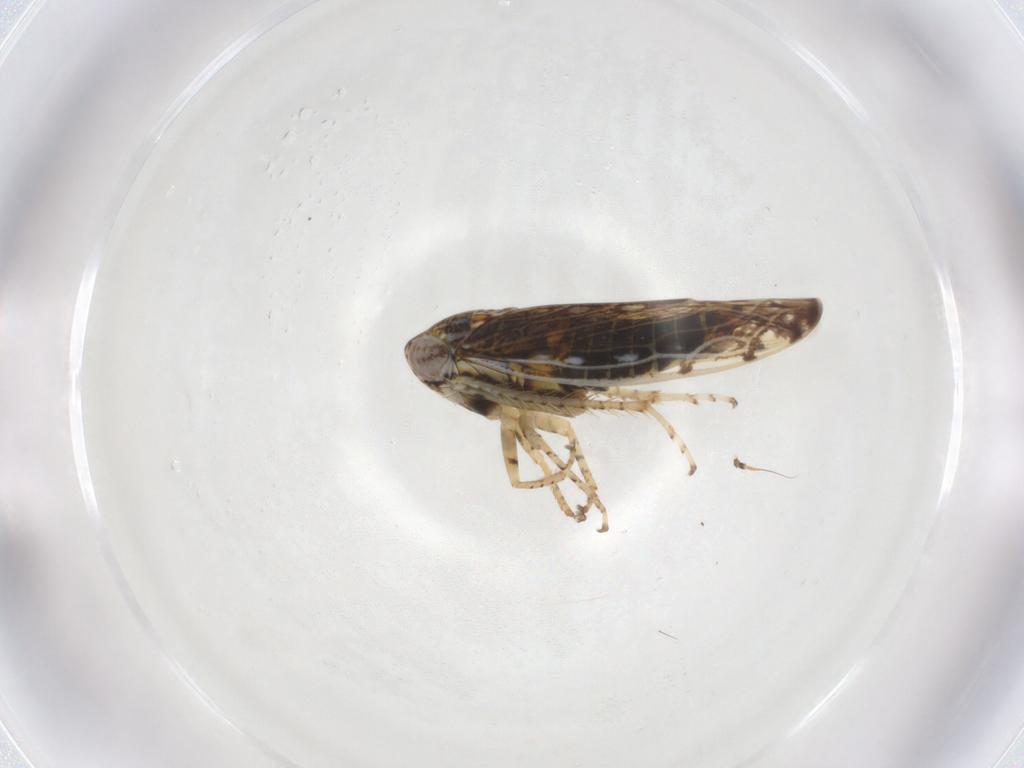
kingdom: Animalia
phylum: Arthropoda
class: Insecta
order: Hemiptera
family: Cicadellidae
